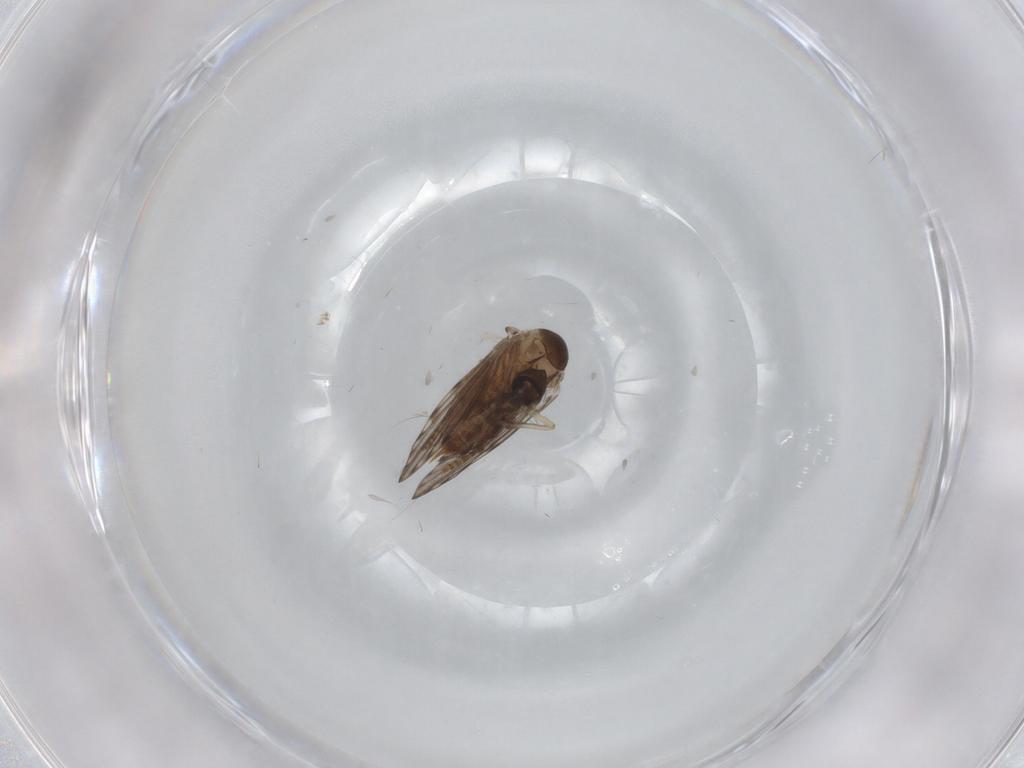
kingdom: Animalia
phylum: Arthropoda
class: Insecta
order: Diptera
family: Psychodidae
